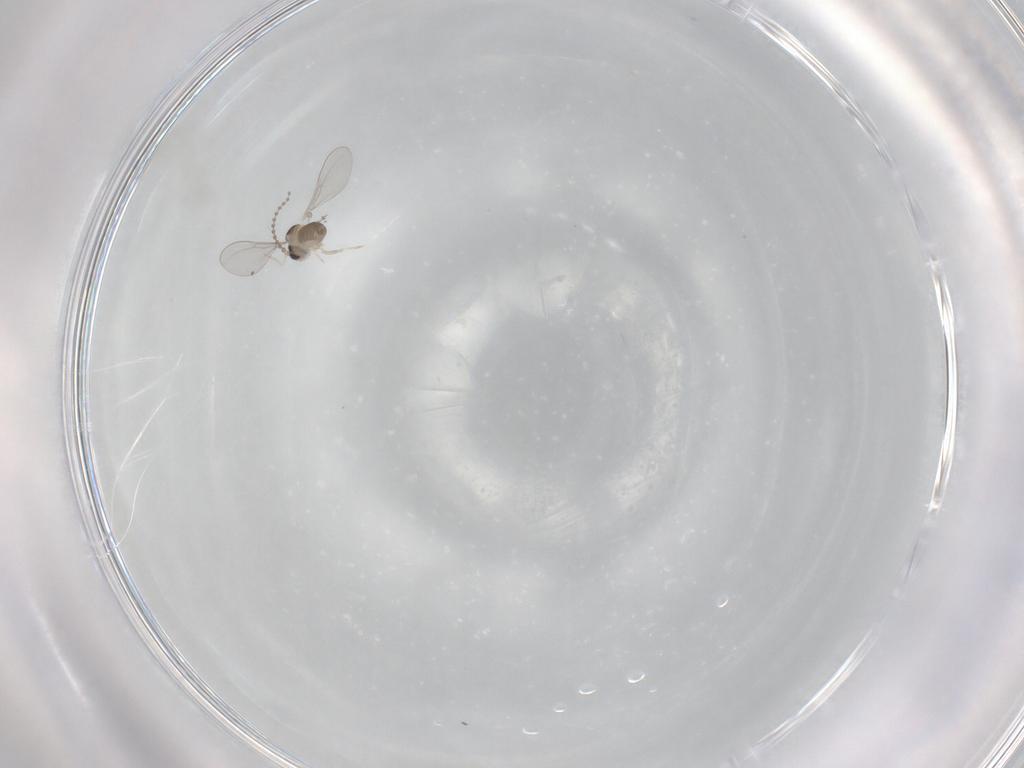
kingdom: Animalia
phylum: Arthropoda
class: Insecta
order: Diptera
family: Cecidomyiidae
